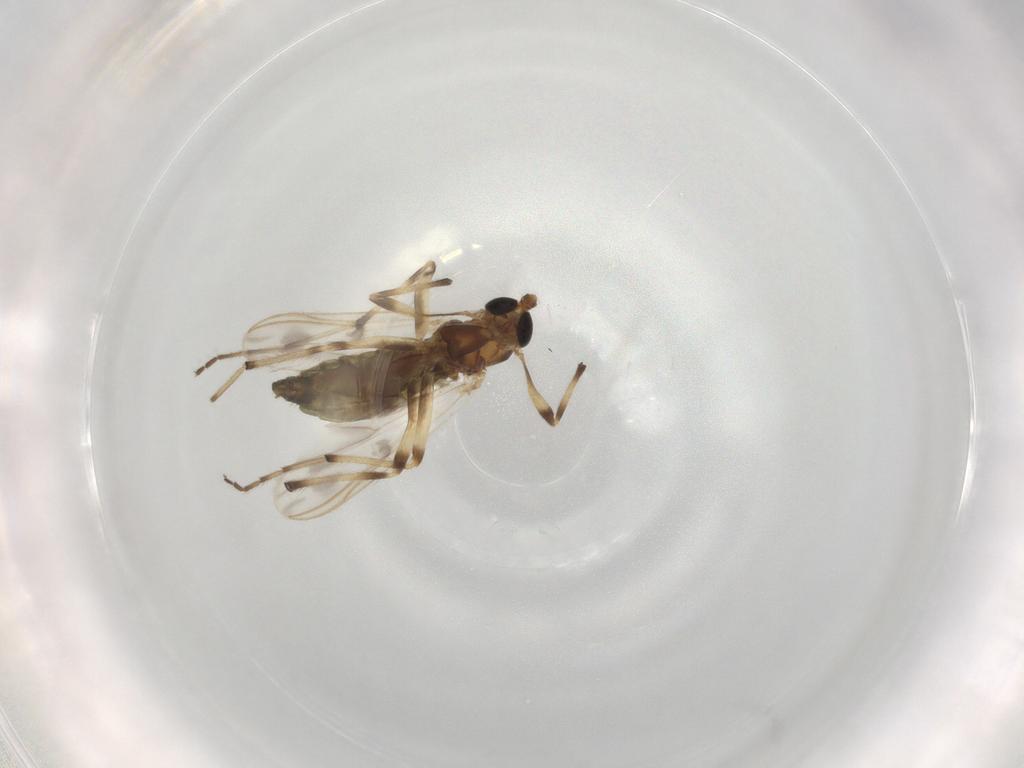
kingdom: Animalia
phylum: Arthropoda
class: Insecta
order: Diptera
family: Chironomidae
